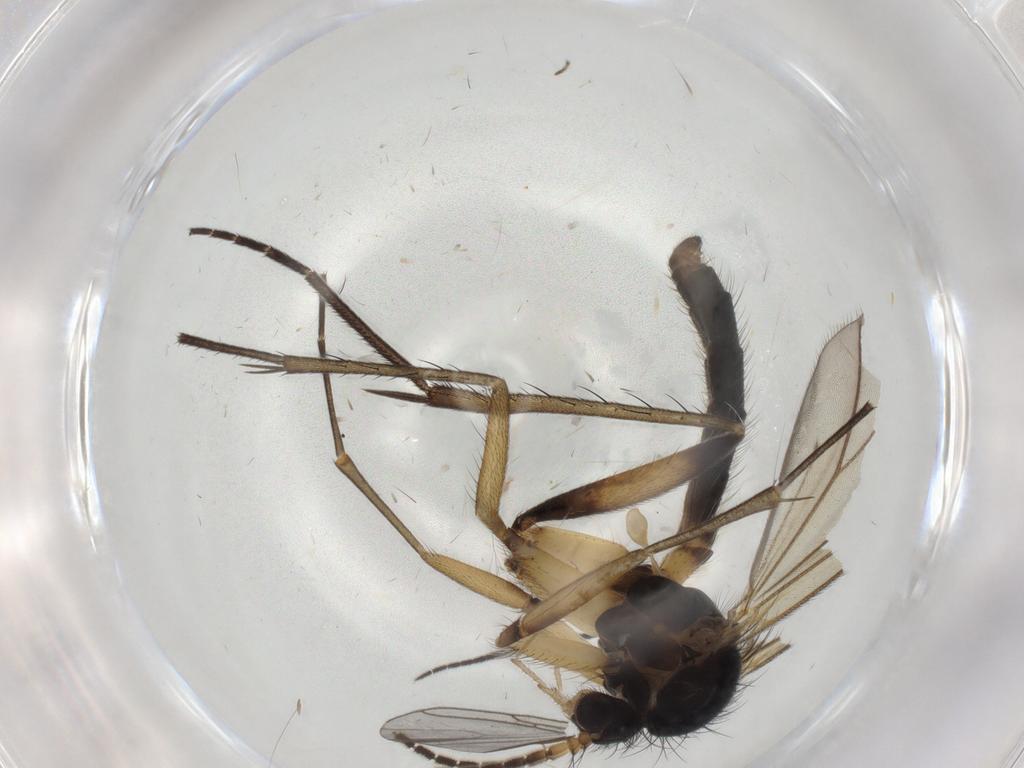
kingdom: Animalia
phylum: Arthropoda
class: Insecta
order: Diptera
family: Sciaridae
